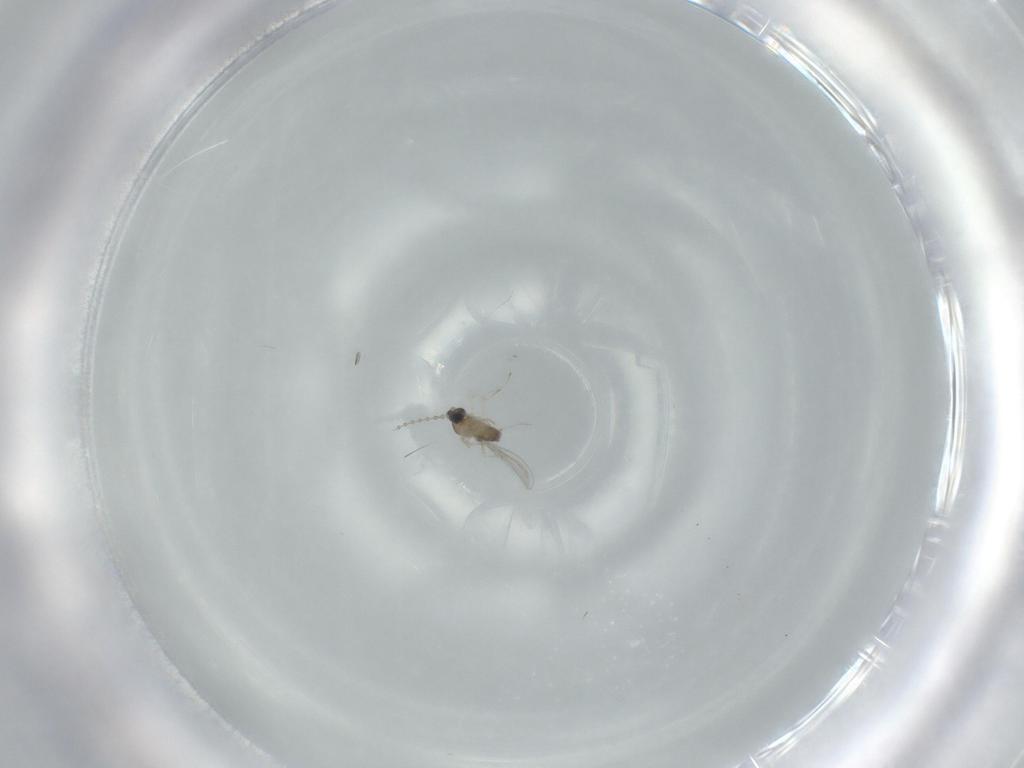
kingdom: Animalia
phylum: Arthropoda
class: Insecta
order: Diptera
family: Cecidomyiidae
